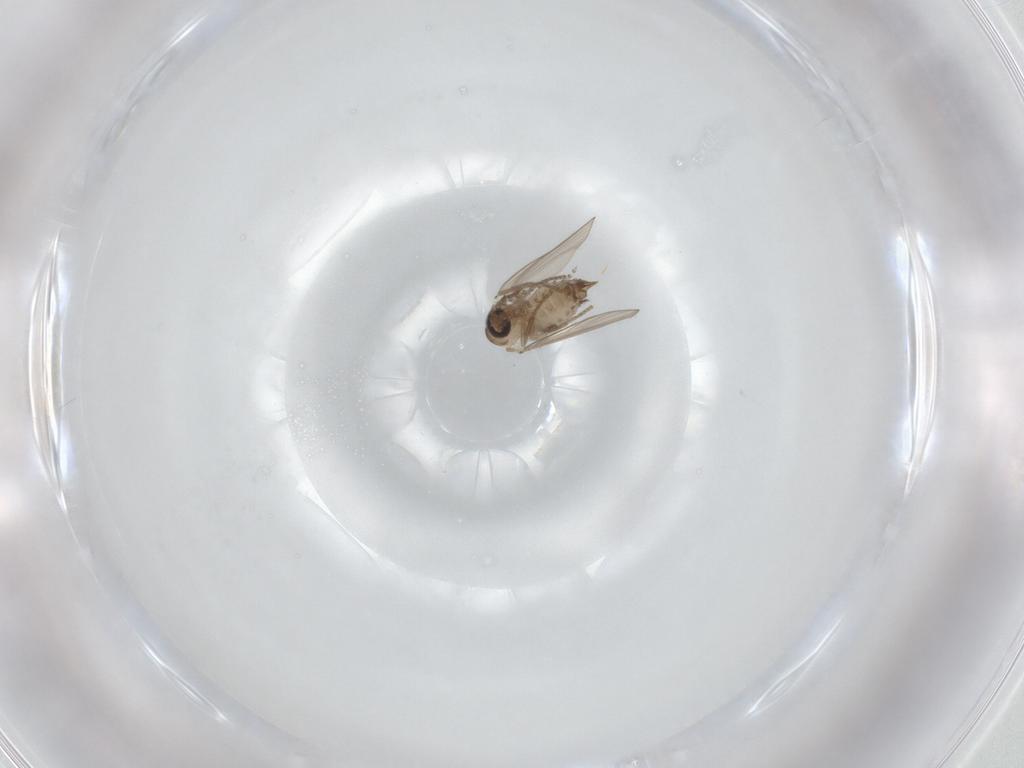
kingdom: Animalia
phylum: Arthropoda
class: Insecta
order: Diptera
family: Psychodidae
